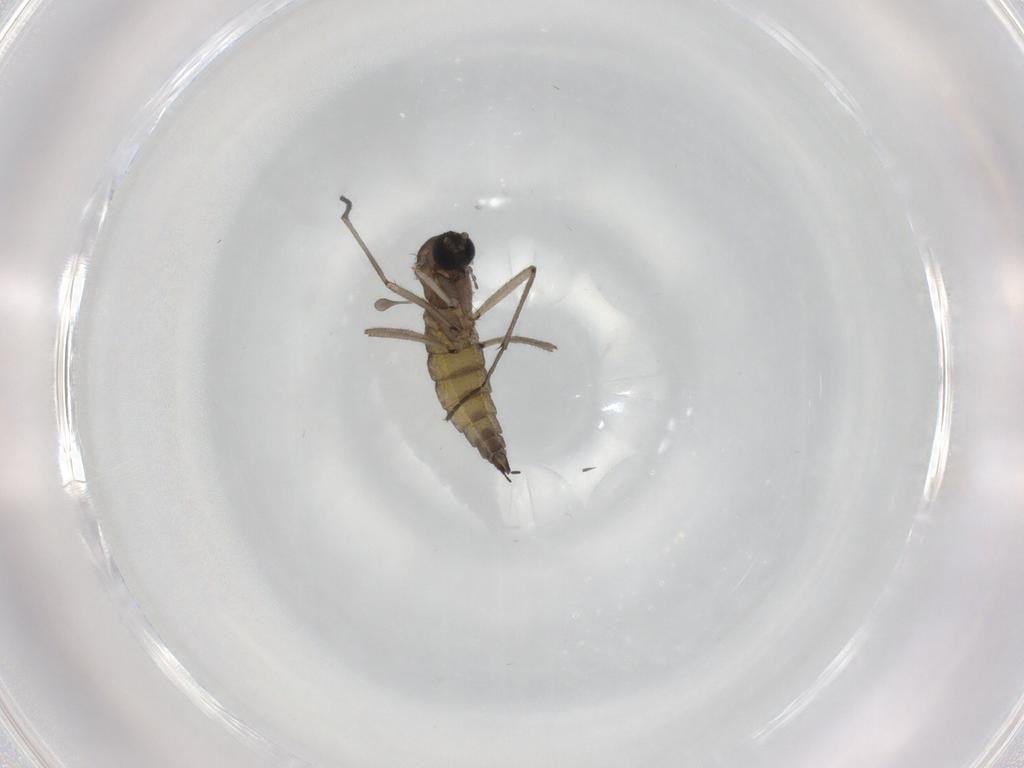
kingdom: Animalia
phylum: Arthropoda
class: Insecta
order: Diptera
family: Sciaridae
